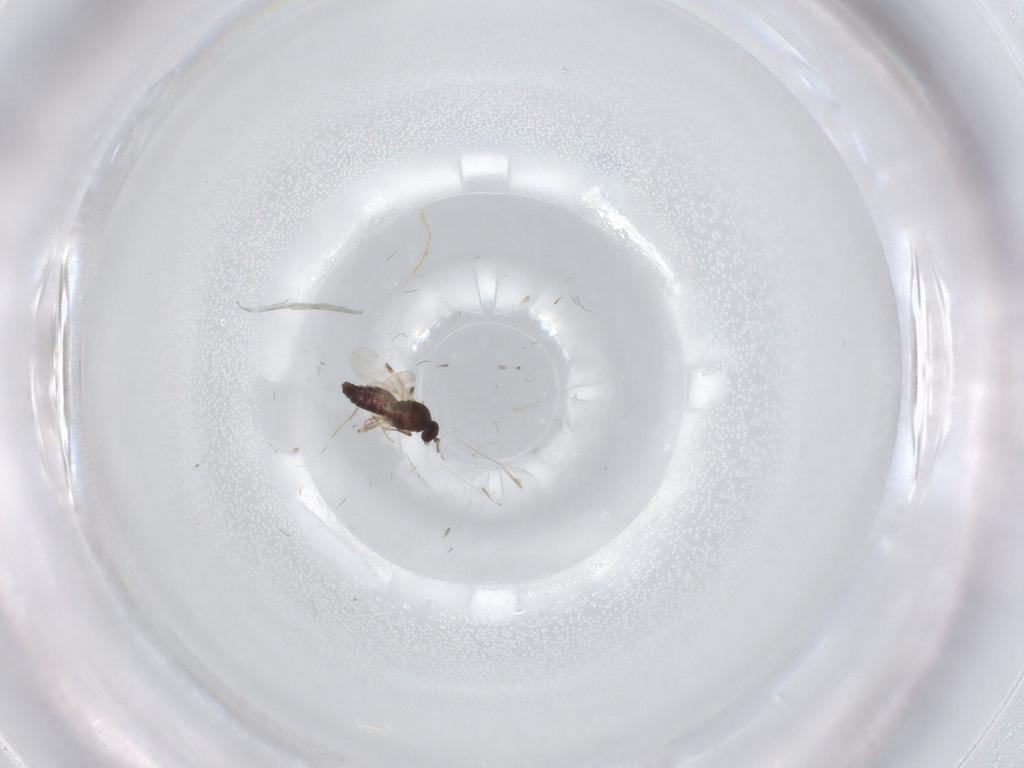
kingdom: Animalia
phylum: Arthropoda
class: Insecta
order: Diptera
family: Limoniidae
